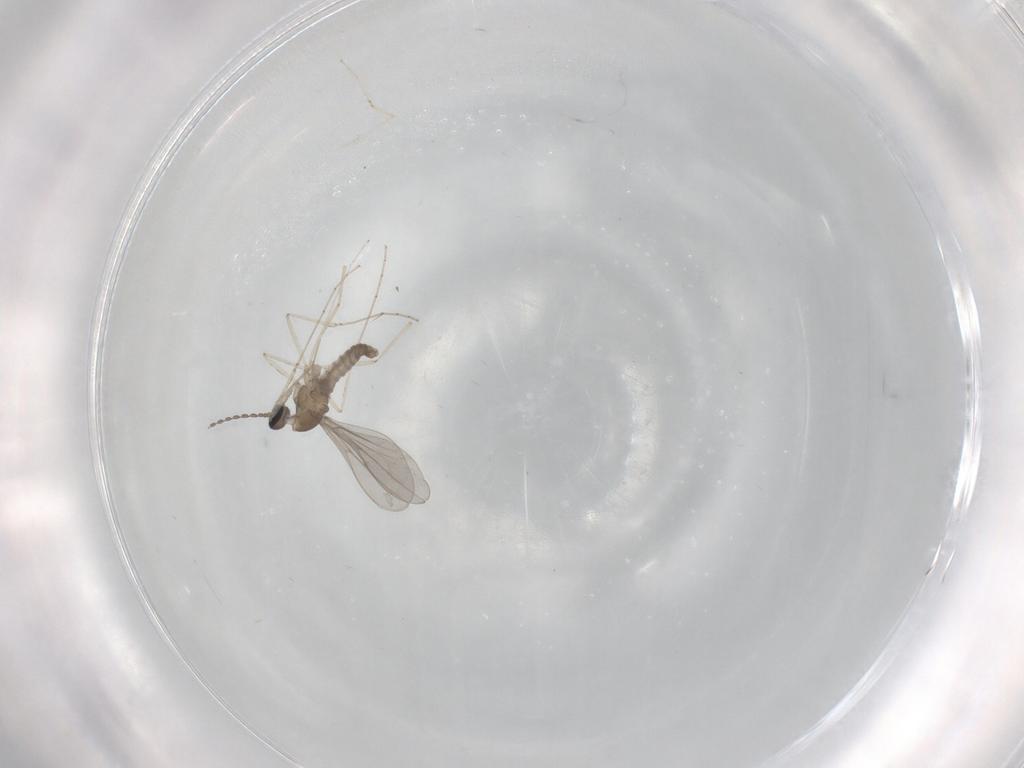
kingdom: Animalia
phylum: Arthropoda
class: Insecta
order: Diptera
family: Cecidomyiidae
